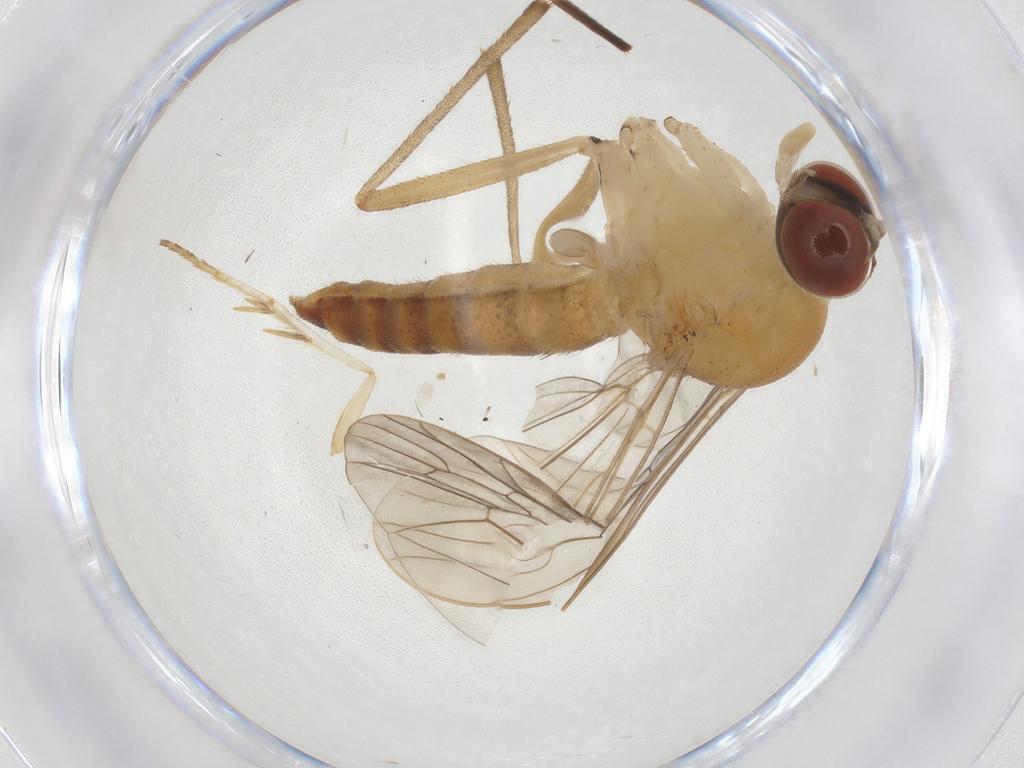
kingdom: Animalia
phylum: Arthropoda
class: Insecta
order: Diptera
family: Apsilocephalidae
